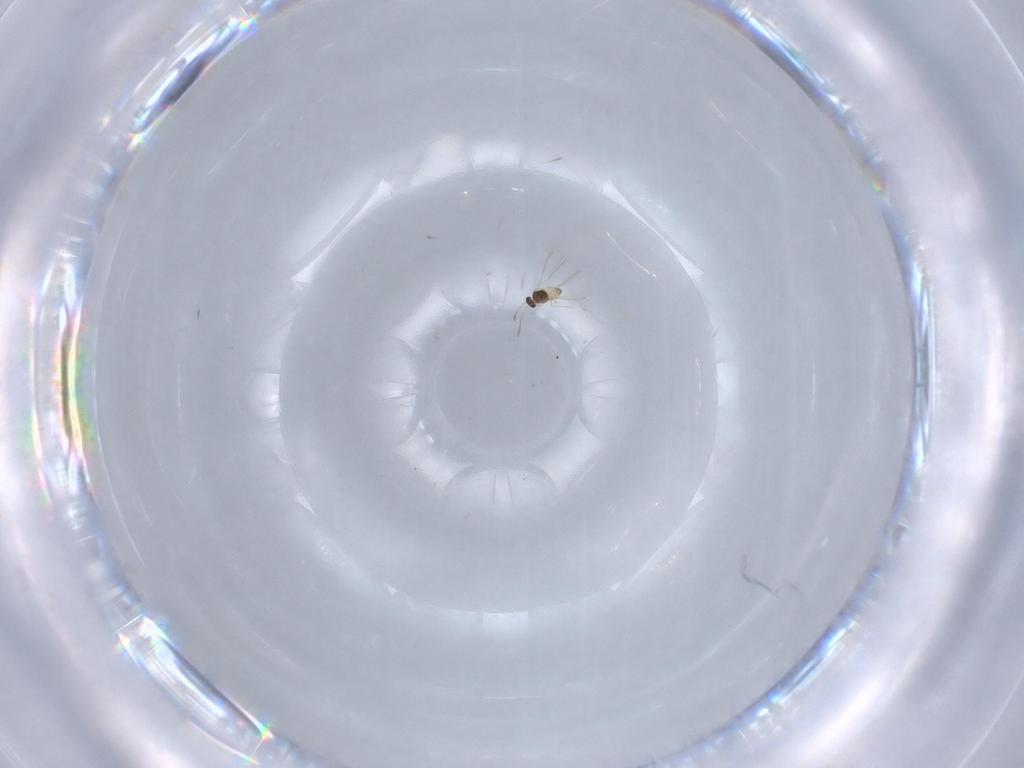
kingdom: Animalia
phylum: Arthropoda
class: Insecta
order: Hymenoptera
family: Mymaridae
